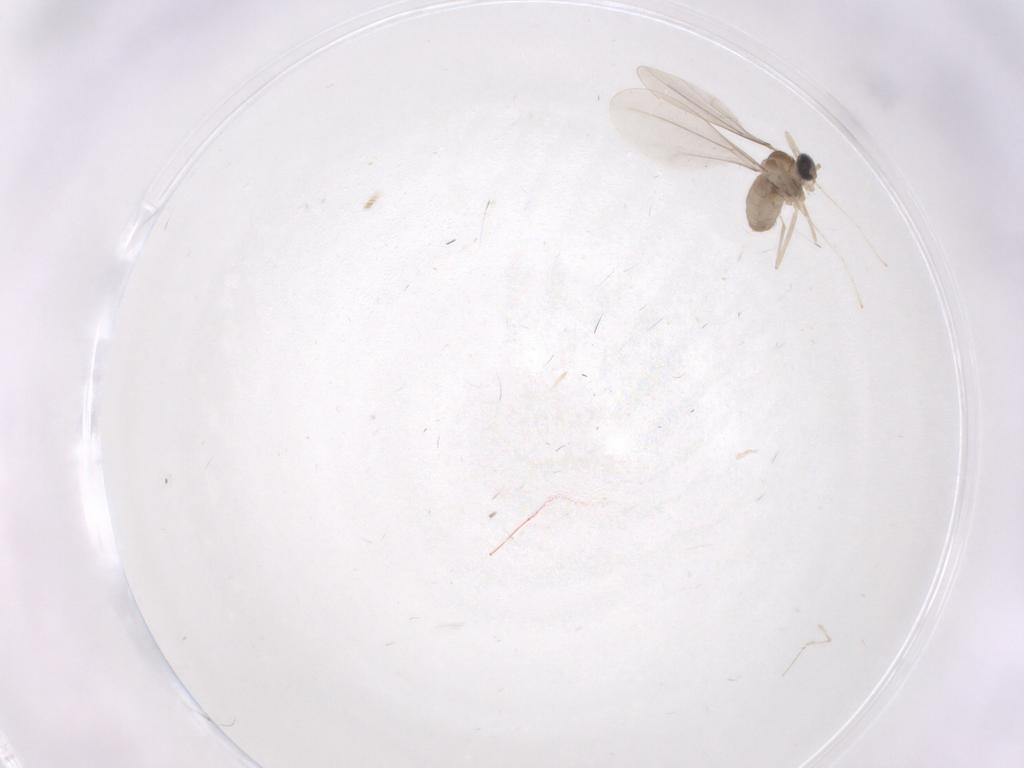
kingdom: Animalia
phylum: Arthropoda
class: Insecta
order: Diptera
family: Cecidomyiidae
